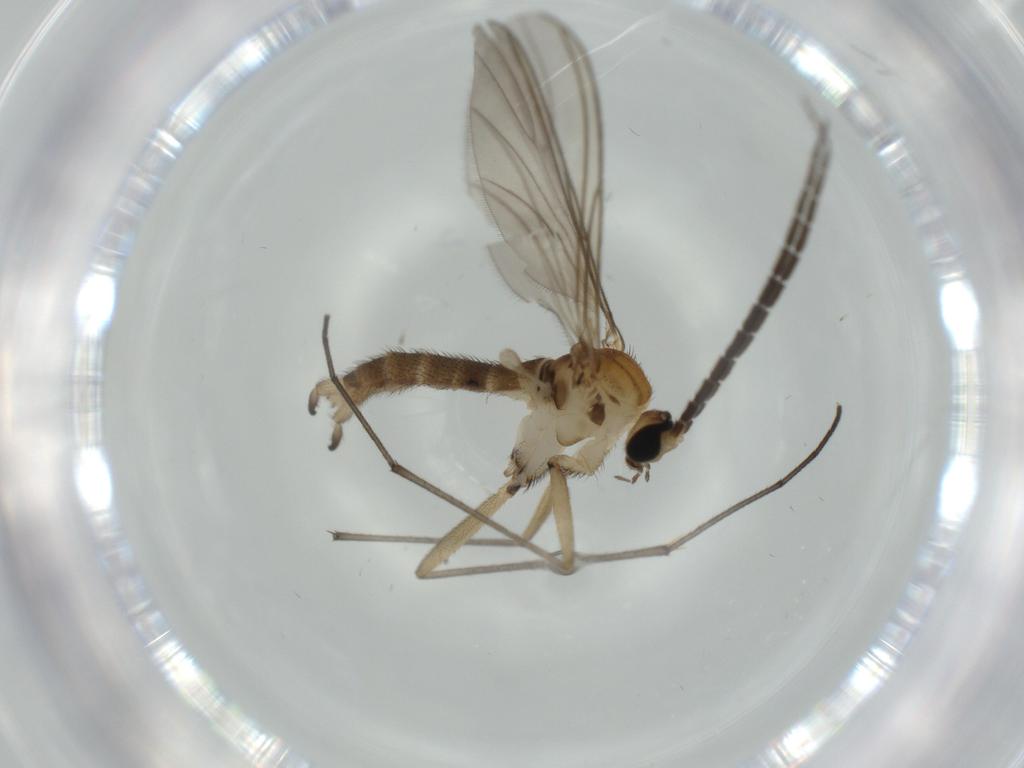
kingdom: Animalia
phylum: Arthropoda
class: Insecta
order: Diptera
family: Sciaridae
